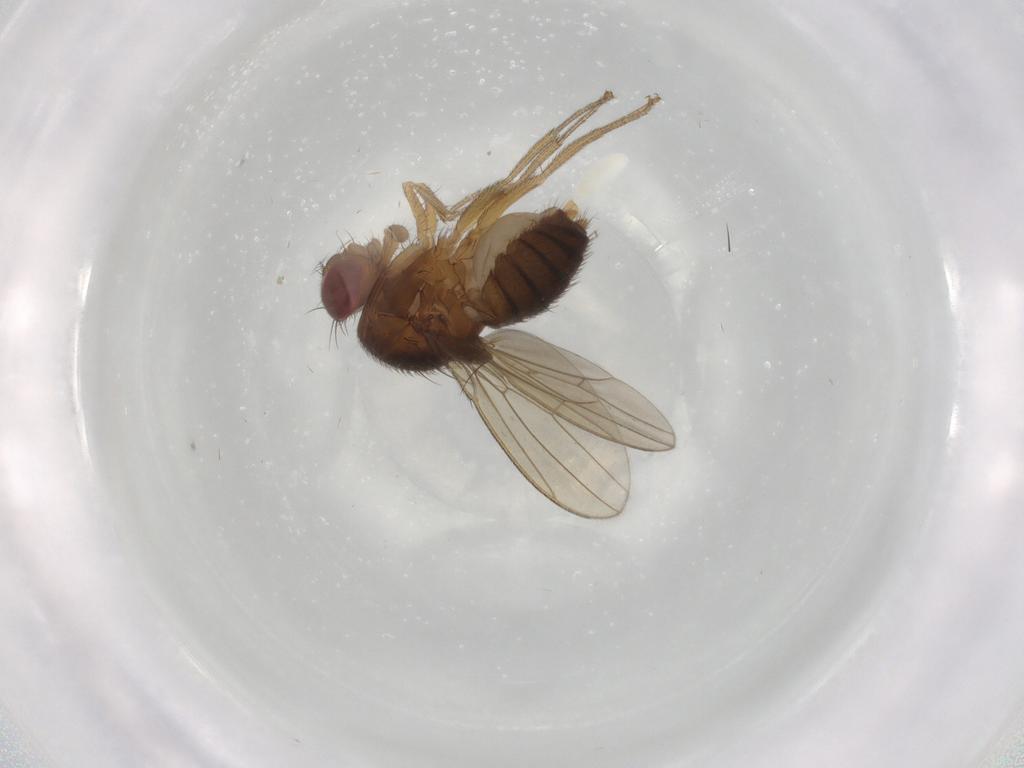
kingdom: Animalia
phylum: Arthropoda
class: Insecta
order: Diptera
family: Drosophilidae
